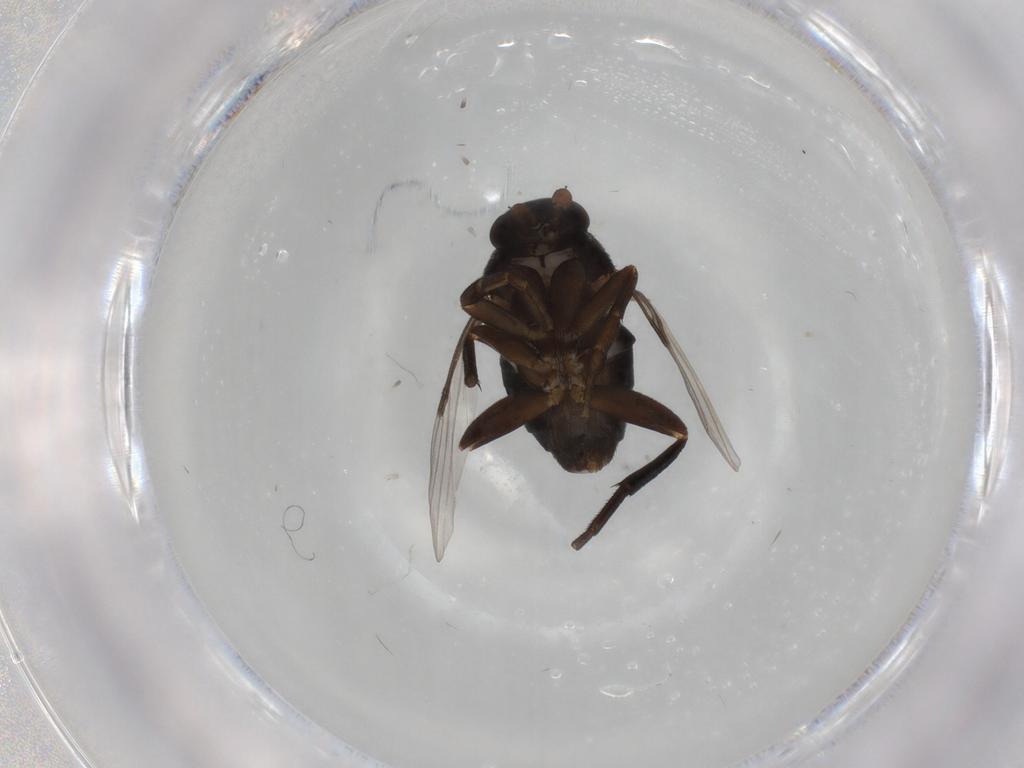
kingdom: Animalia
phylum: Arthropoda
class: Insecta
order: Diptera
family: Phoridae
